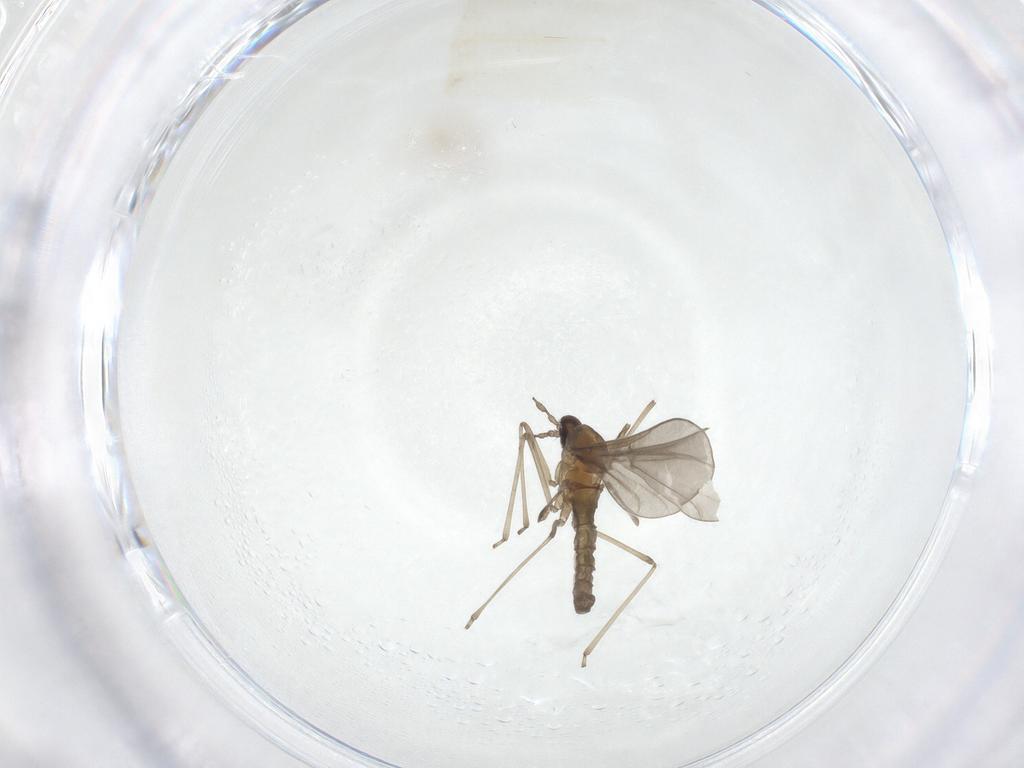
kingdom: Animalia
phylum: Arthropoda
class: Insecta
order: Diptera
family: Cecidomyiidae
